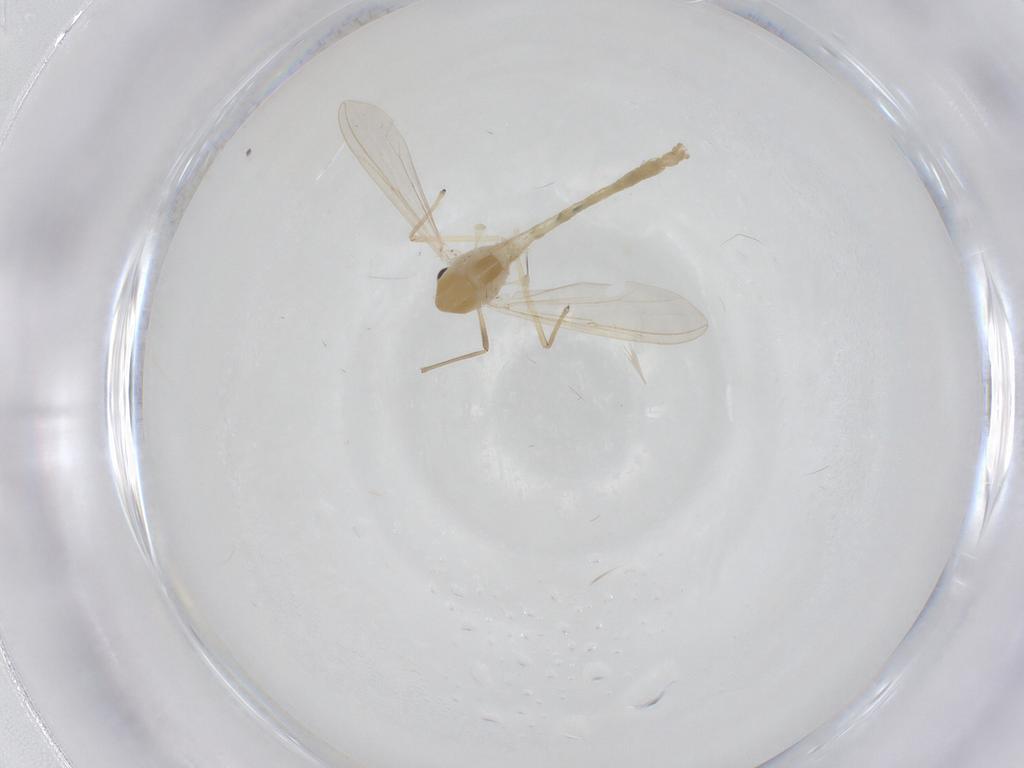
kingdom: Animalia
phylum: Arthropoda
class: Insecta
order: Diptera
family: Chironomidae
